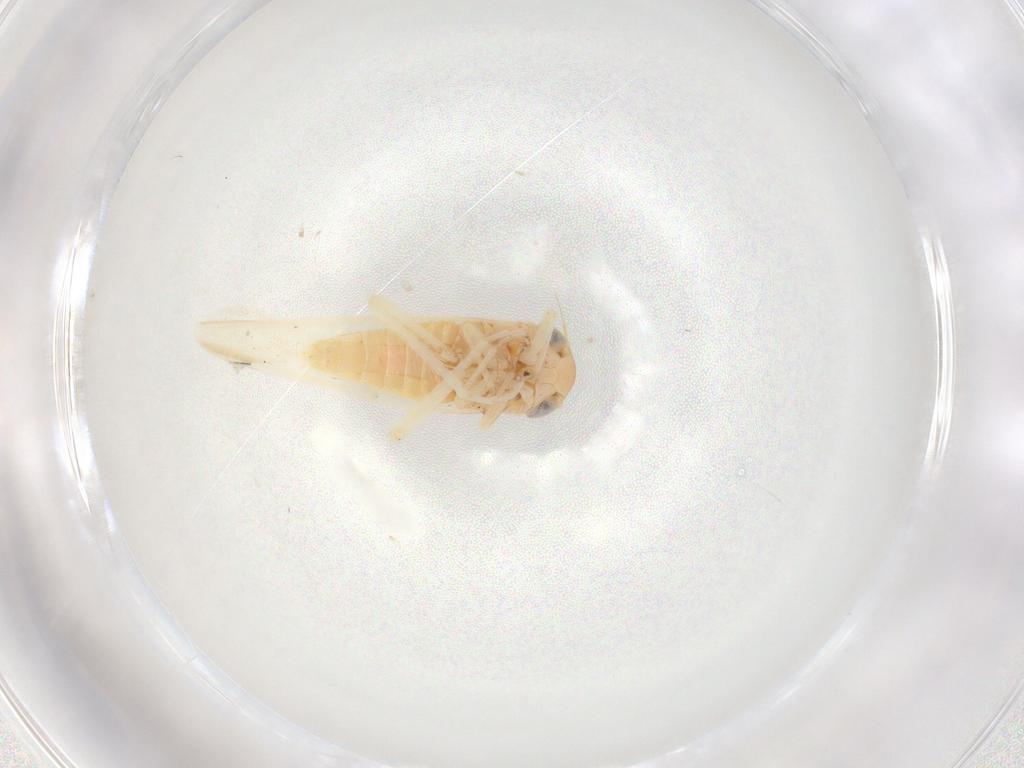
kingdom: Animalia
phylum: Arthropoda
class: Insecta
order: Hemiptera
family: Cicadellidae
